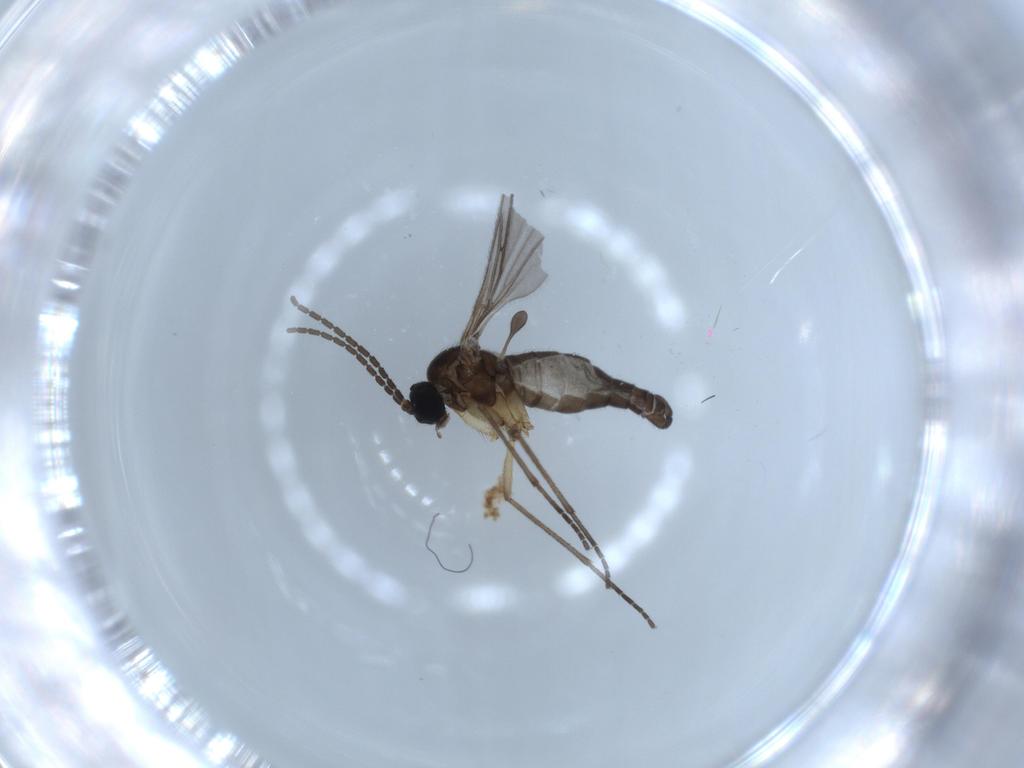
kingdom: Animalia
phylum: Arthropoda
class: Insecta
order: Diptera
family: Sciaridae
